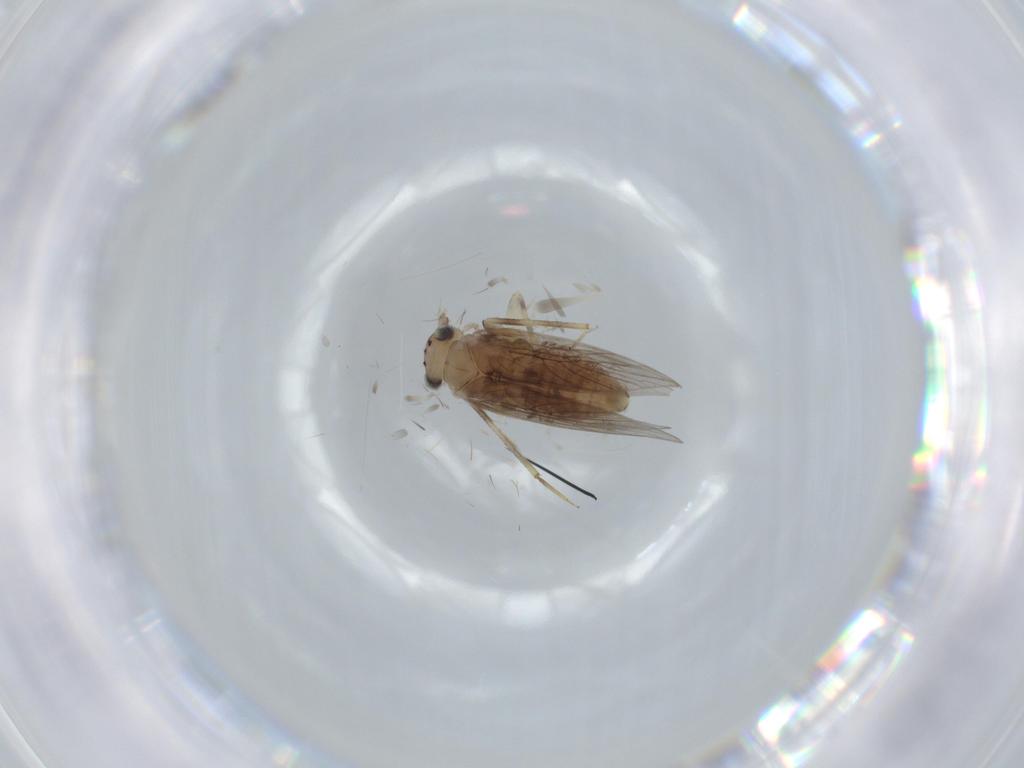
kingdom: Animalia
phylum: Arthropoda
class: Insecta
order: Psocodea
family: Lepidopsocidae
